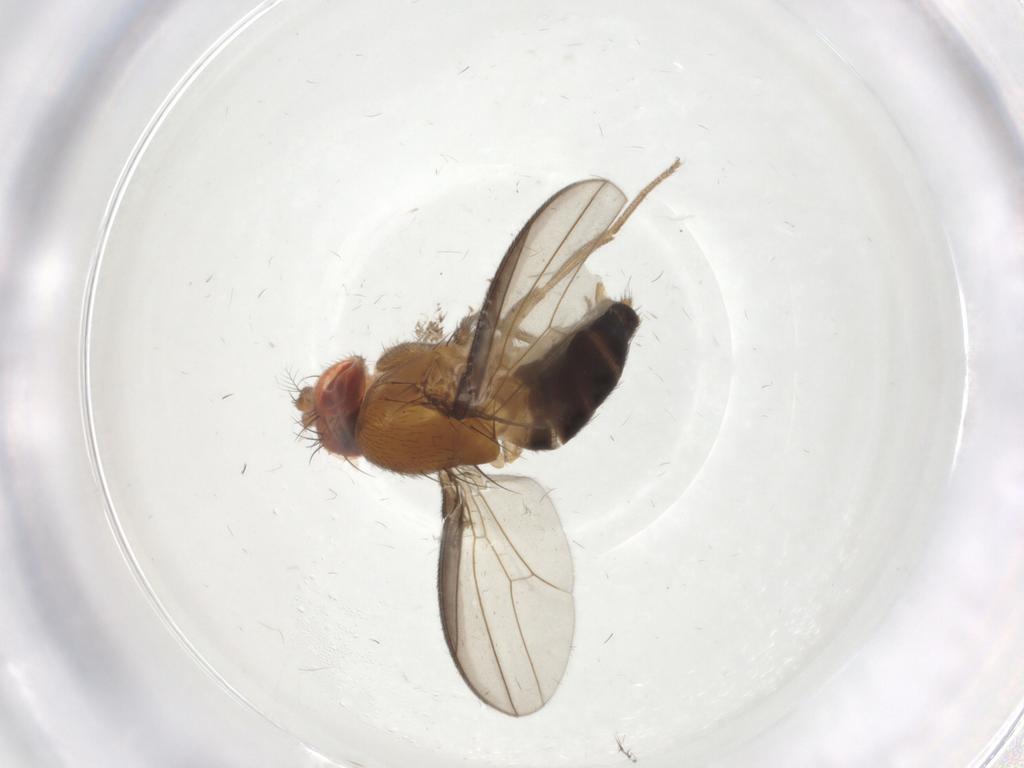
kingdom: Animalia
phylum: Arthropoda
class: Insecta
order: Diptera
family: Drosophilidae
